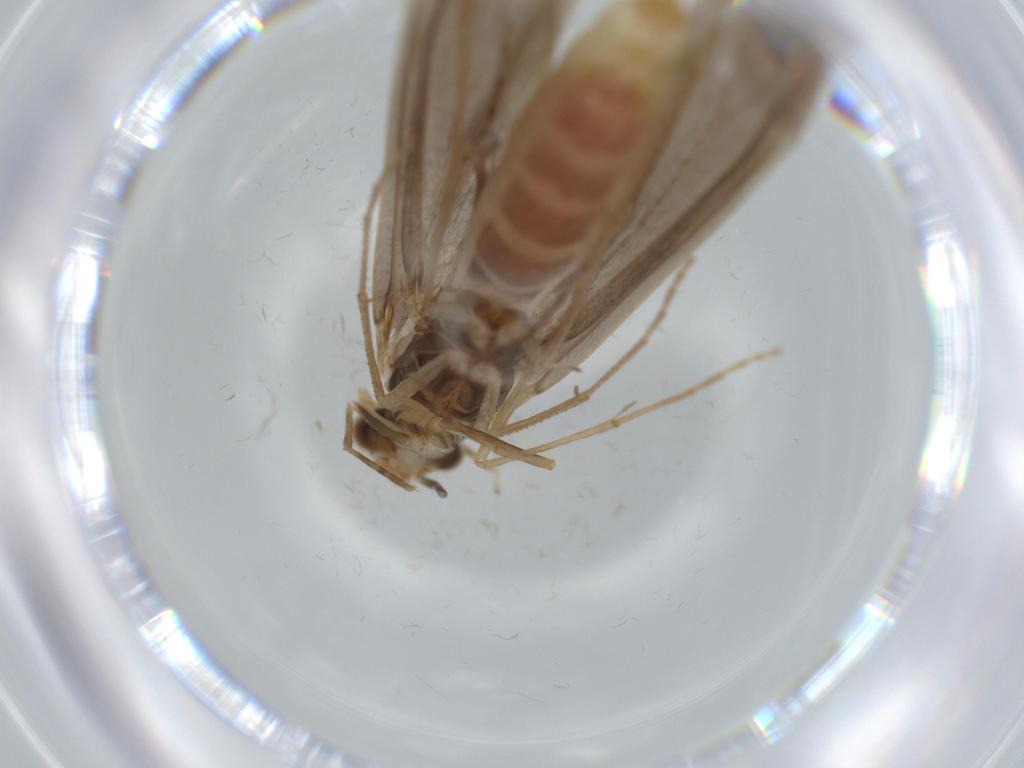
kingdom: Animalia
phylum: Arthropoda
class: Insecta
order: Trichoptera
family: Leptoceridae
